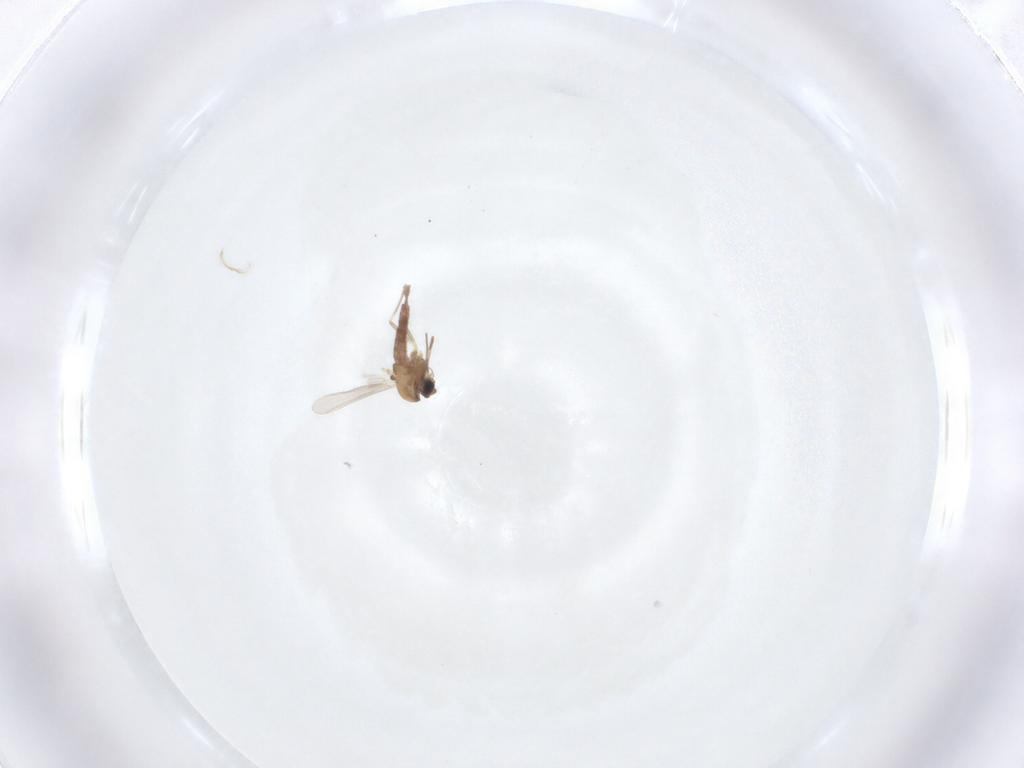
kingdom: Animalia
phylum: Arthropoda
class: Insecta
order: Diptera
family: Chironomidae
